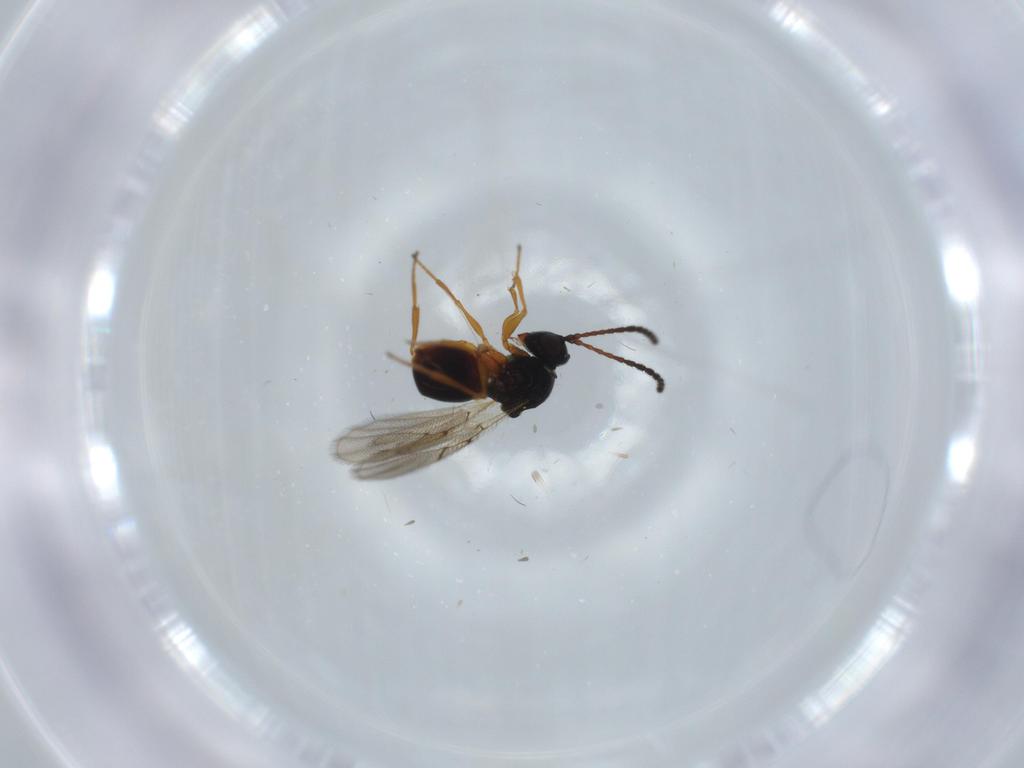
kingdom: Animalia
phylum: Arthropoda
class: Insecta
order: Hymenoptera
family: Figitidae
